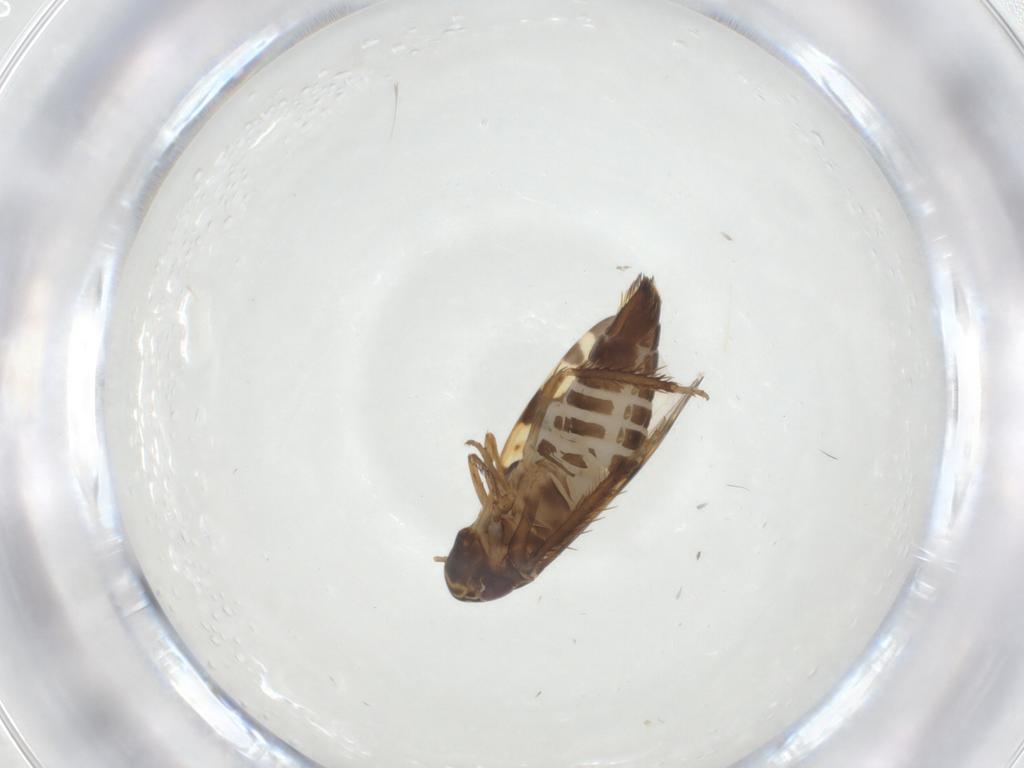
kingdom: Animalia
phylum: Arthropoda
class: Insecta
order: Hemiptera
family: Cicadellidae
